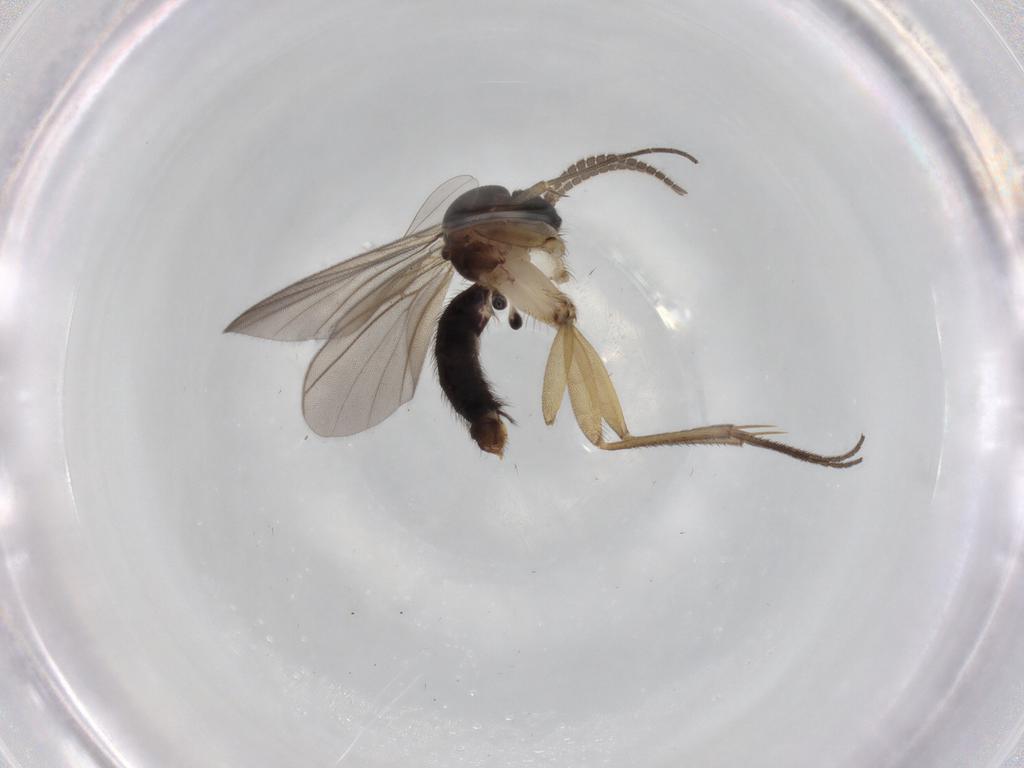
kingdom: Animalia
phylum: Arthropoda
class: Insecta
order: Diptera
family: Mycetophilidae
